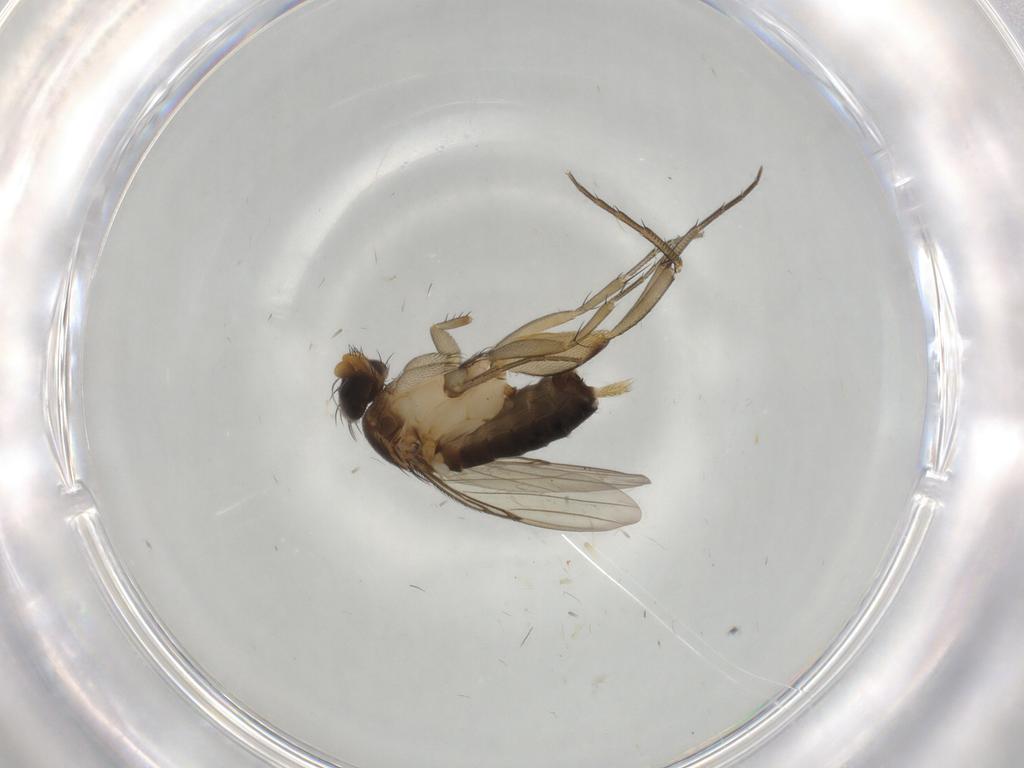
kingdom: Animalia
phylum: Arthropoda
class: Insecta
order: Diptera
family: Phoridae
